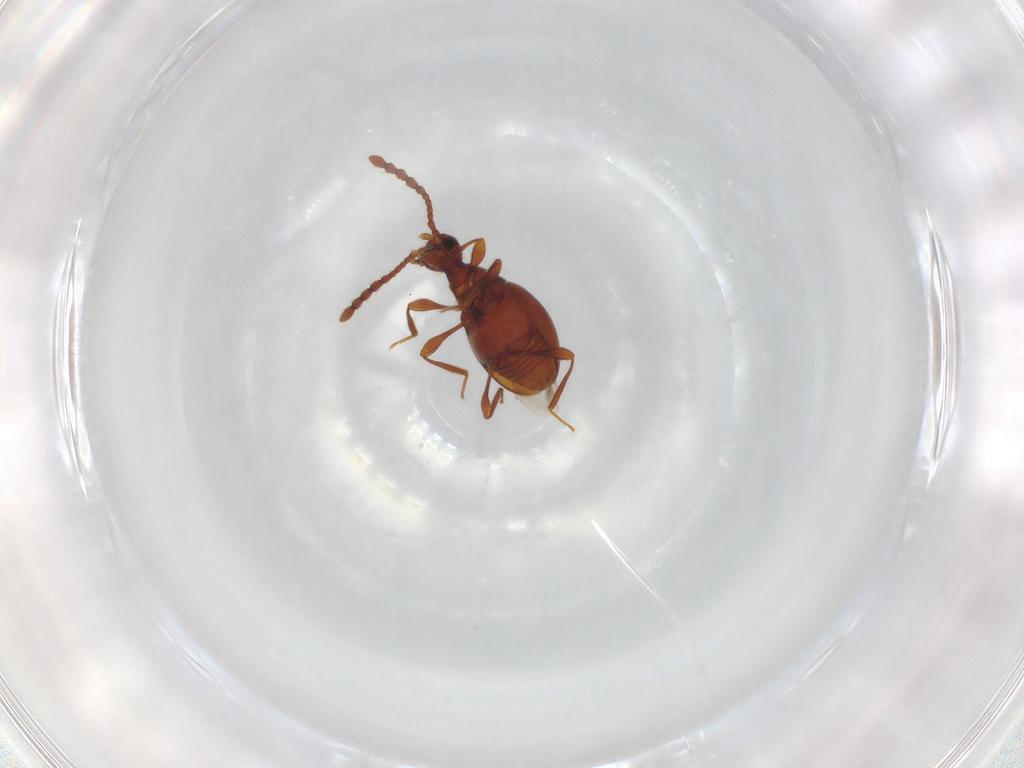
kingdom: Animalia
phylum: Arthropoda
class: Insecta
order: Coleoptera
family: Staphylinidae
